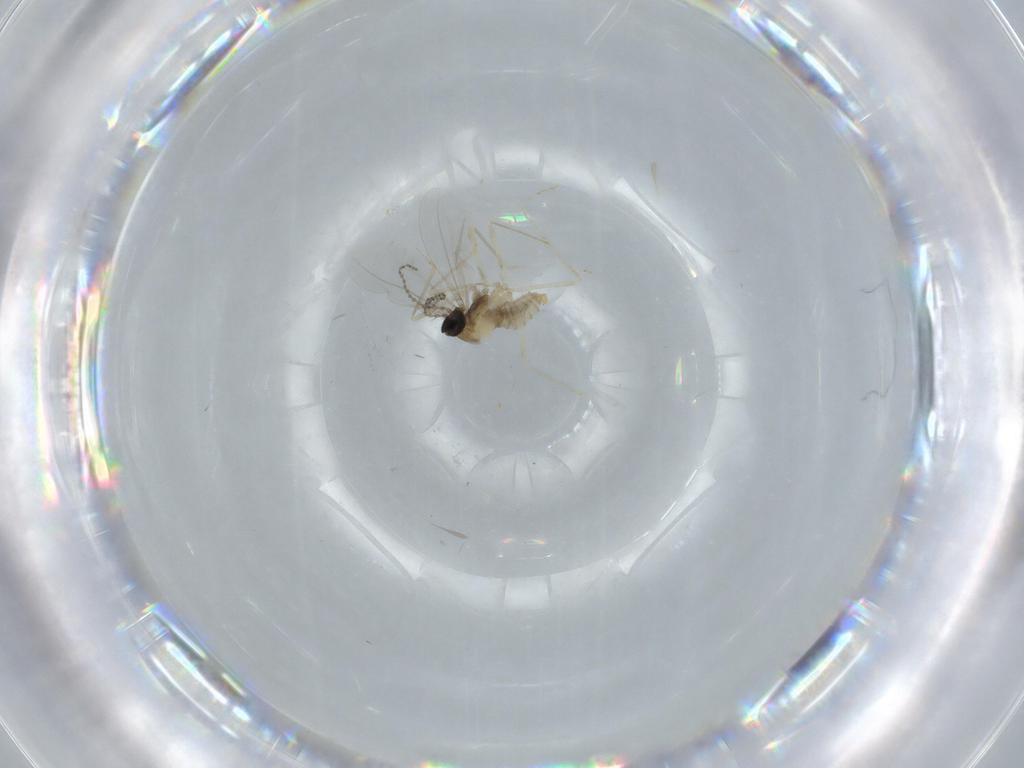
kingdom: Animalia
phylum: Arthropoda
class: Insecta
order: Diptera
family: Cecidomyiidae
